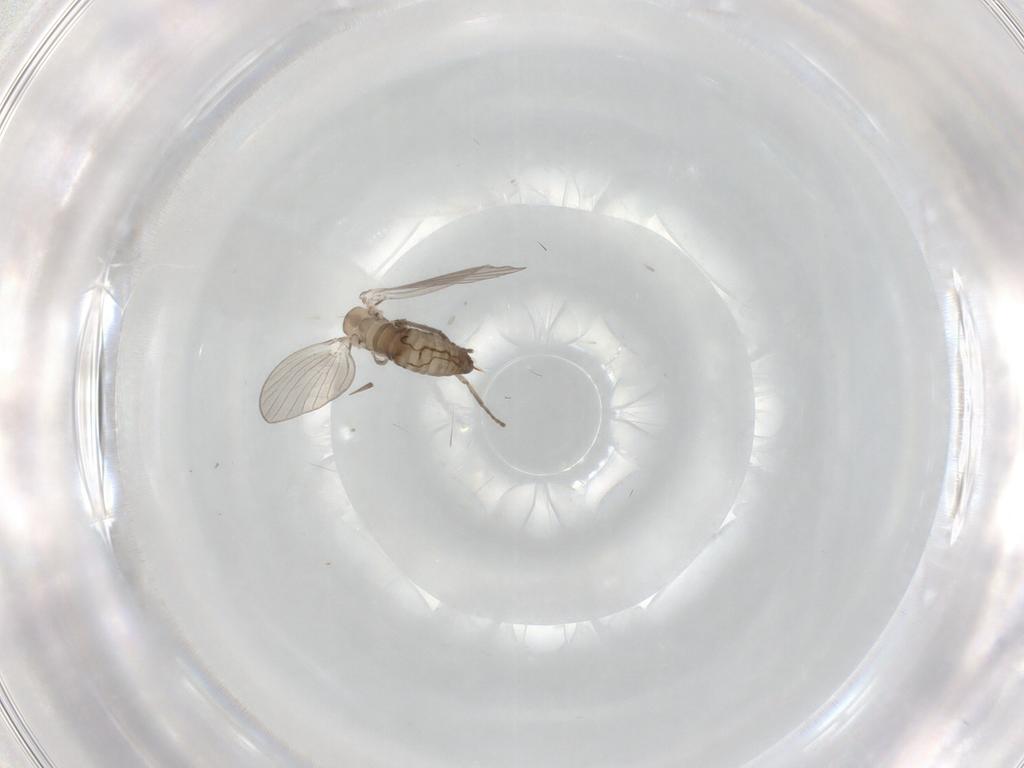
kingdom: Animalia
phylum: Arthropoda
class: Insecta
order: Diptera
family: Drosophilidae
